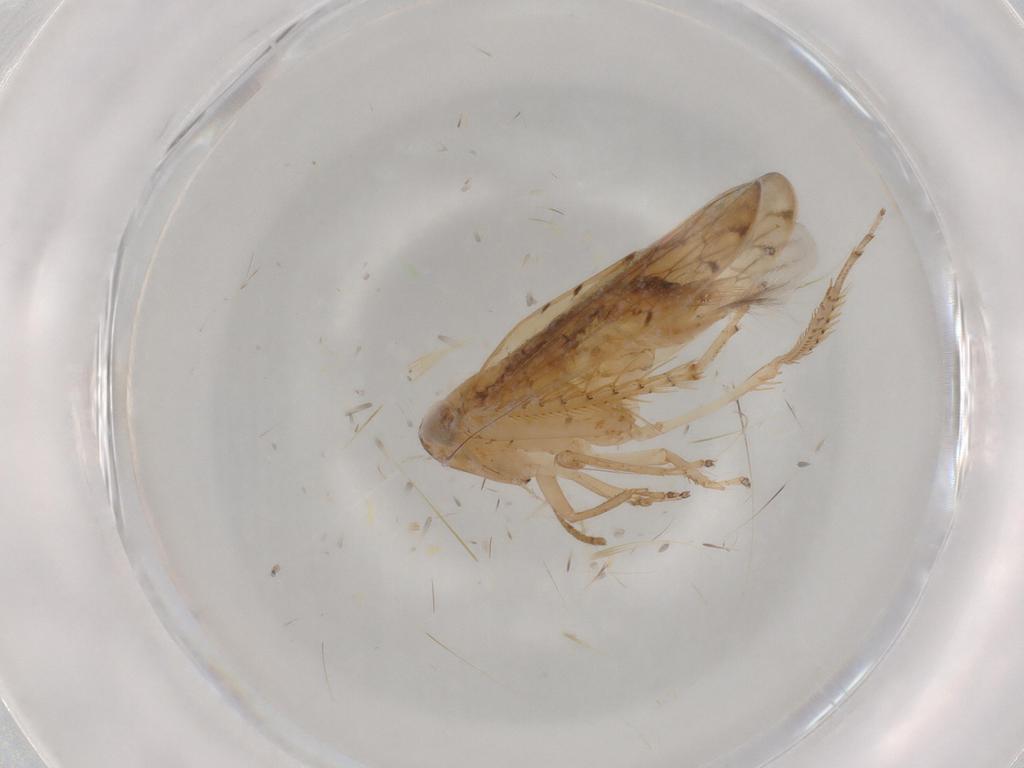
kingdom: Animalia
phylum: Arthropoda
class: Insecta
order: Hemiptera
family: Cicadellidae
